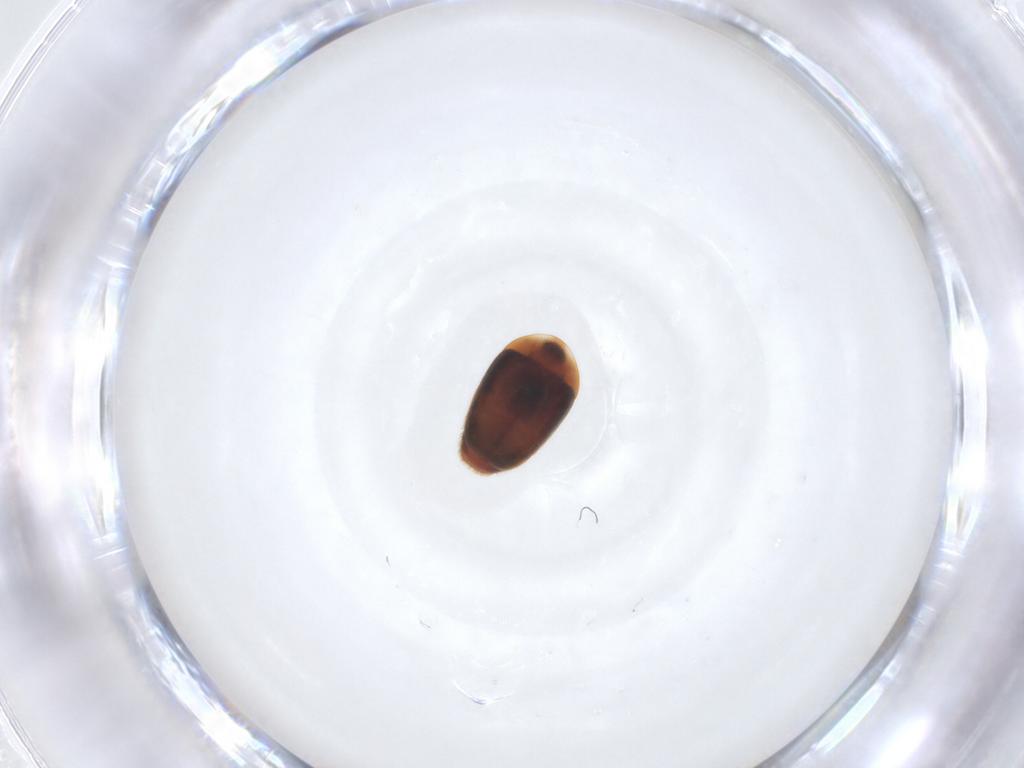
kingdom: Animalia
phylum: Arthropoda
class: Insecta
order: Coleoptera
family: Corylophidae
